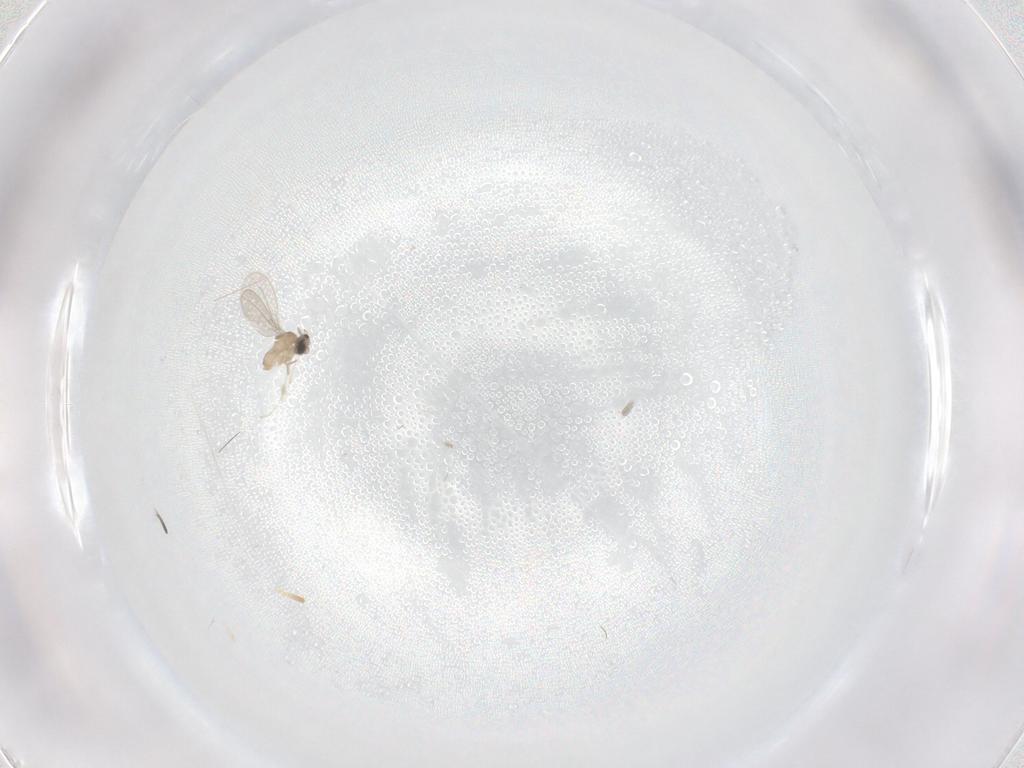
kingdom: Animalia
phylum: Arthropoda
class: Insecta
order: Diptera
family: Cecidomyiidae
